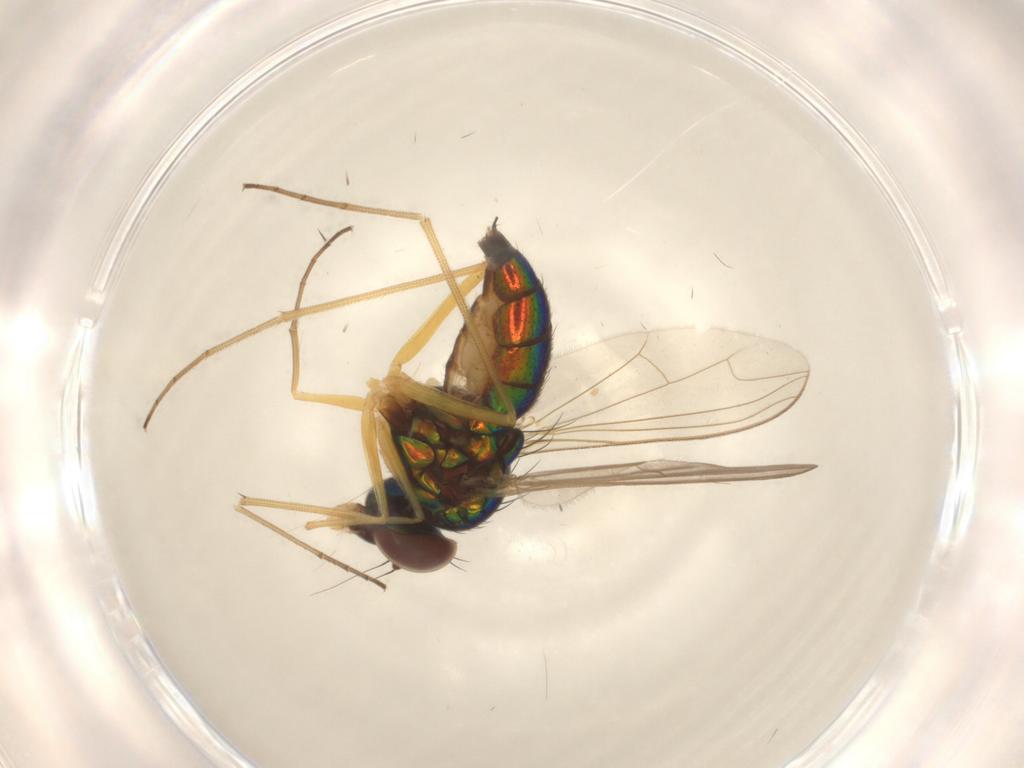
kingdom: Animalia
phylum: Arthropoda
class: Insecta
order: Diptera
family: Dolichopodidae
